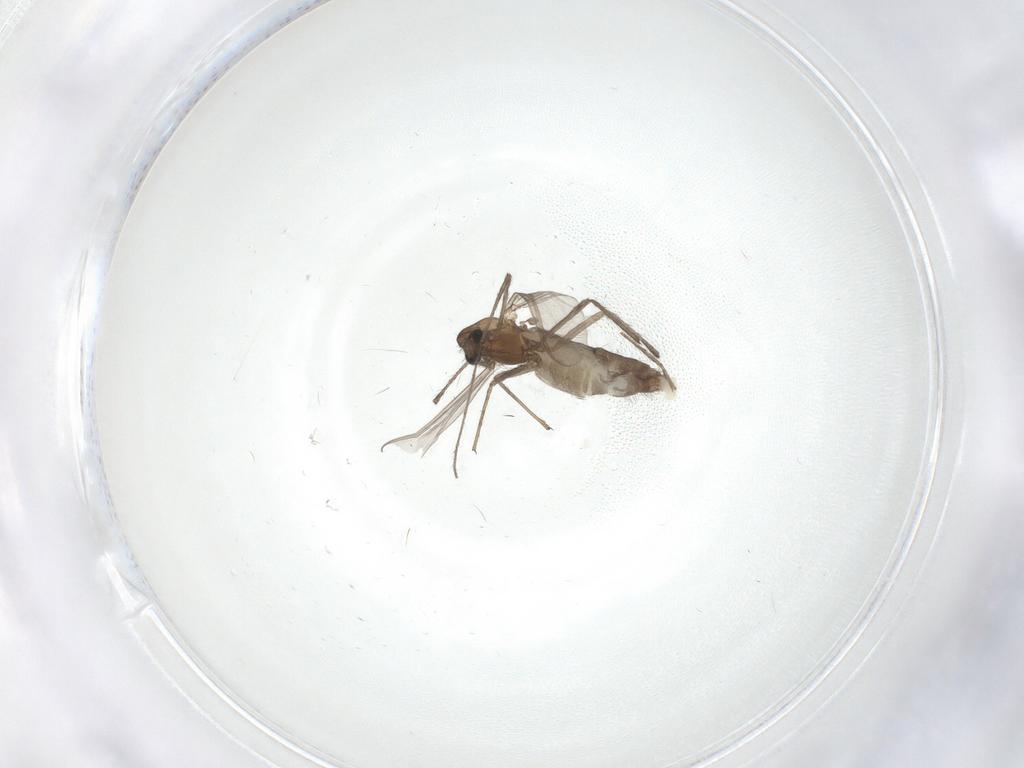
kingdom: Animalia
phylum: Arthropoda
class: Insecta
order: Diptera
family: Chironomidae
